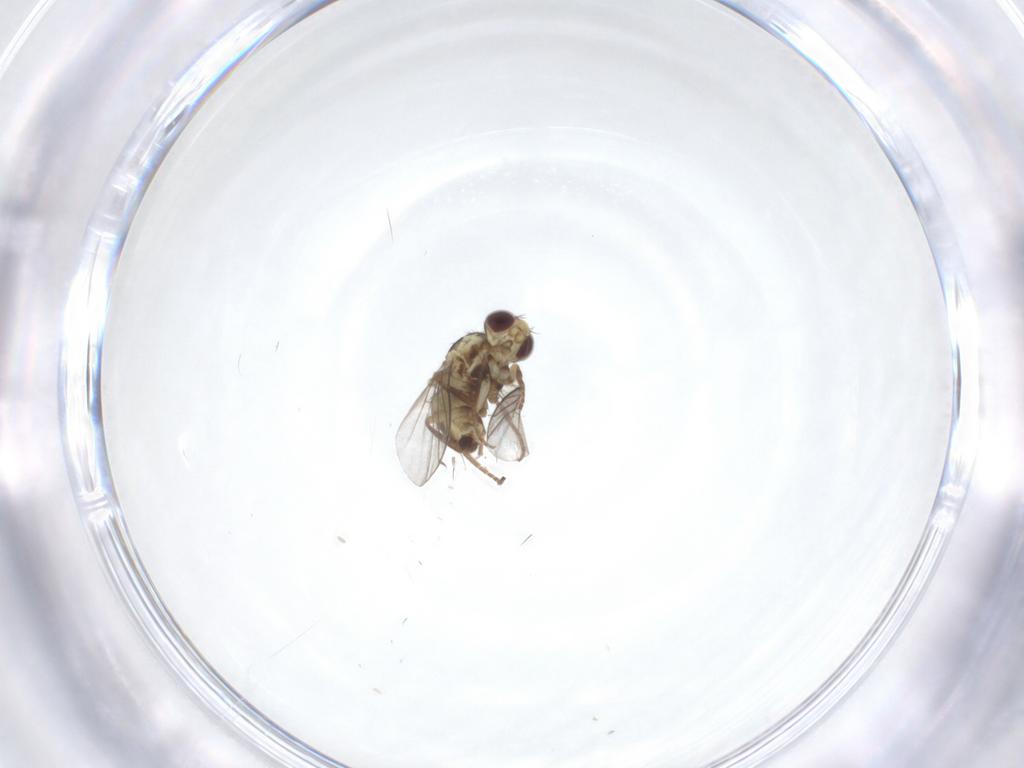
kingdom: Animalia
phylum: Arthropoda
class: Insecta
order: Diptera
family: Agromyzidae
